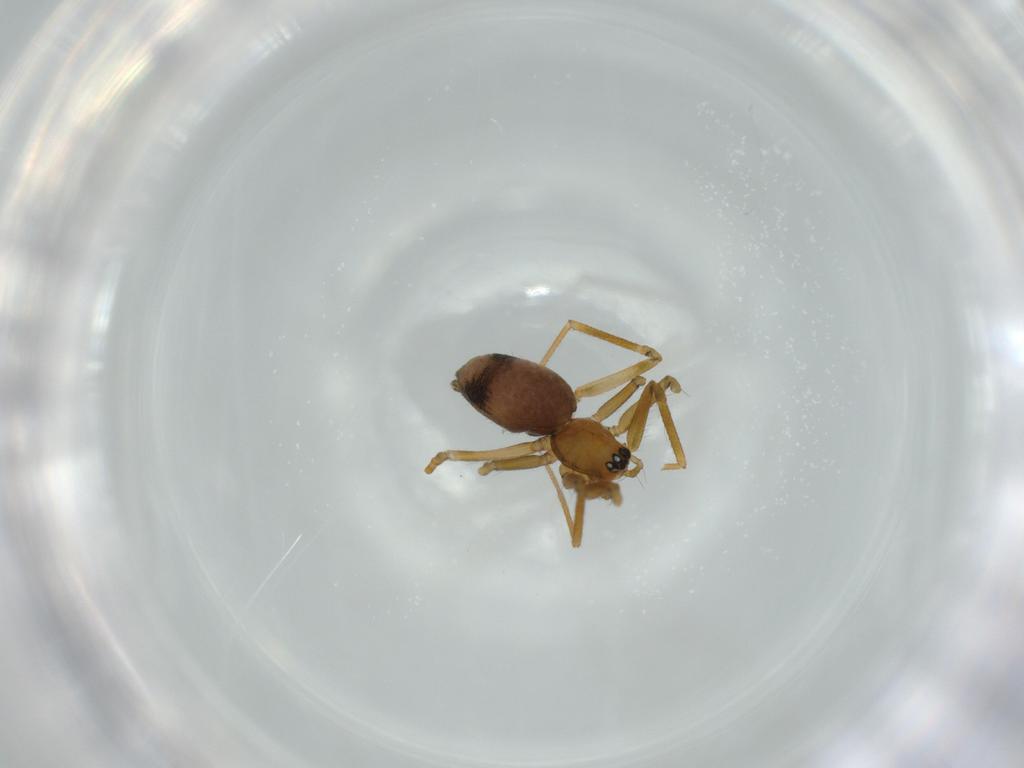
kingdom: Animalia
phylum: Arthropoda
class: Arachnida
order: Araneae
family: Linyphiidae
